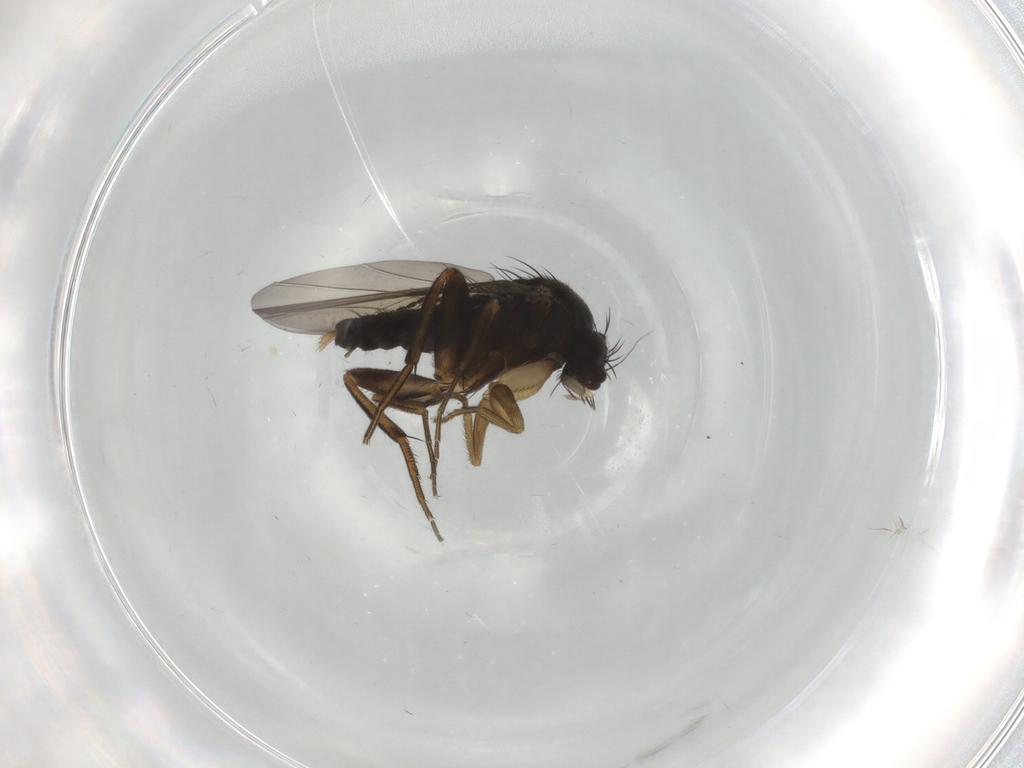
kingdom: Animalia
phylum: Arthropoda
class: Insecta
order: Diptera
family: Phoridae
